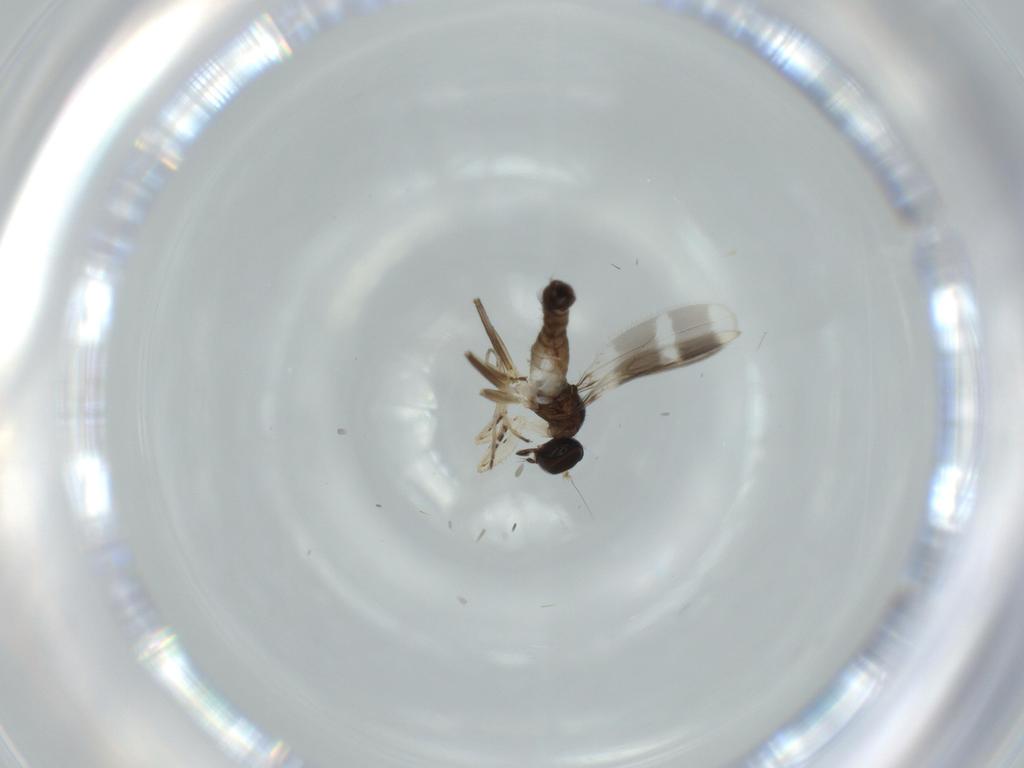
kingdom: Animalia
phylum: Arthropoda
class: Insecta
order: Diptera
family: Hybotidae
